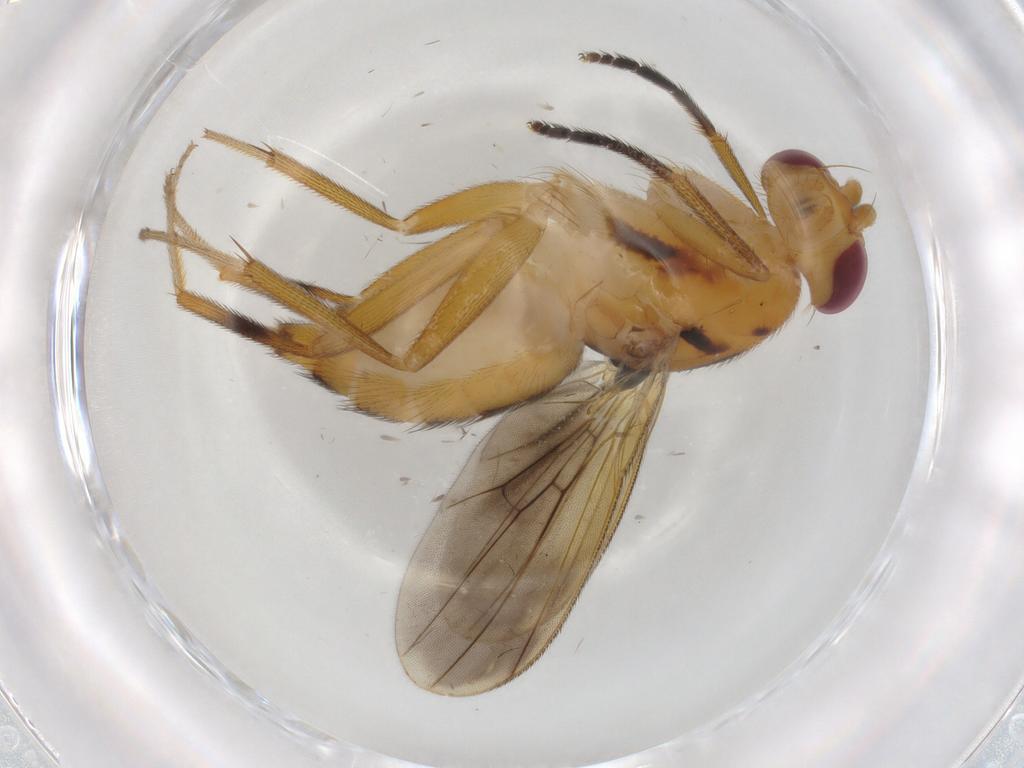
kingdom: Animalia
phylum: Arthropoda
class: Insecta
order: Diptera
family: Clusiidae
